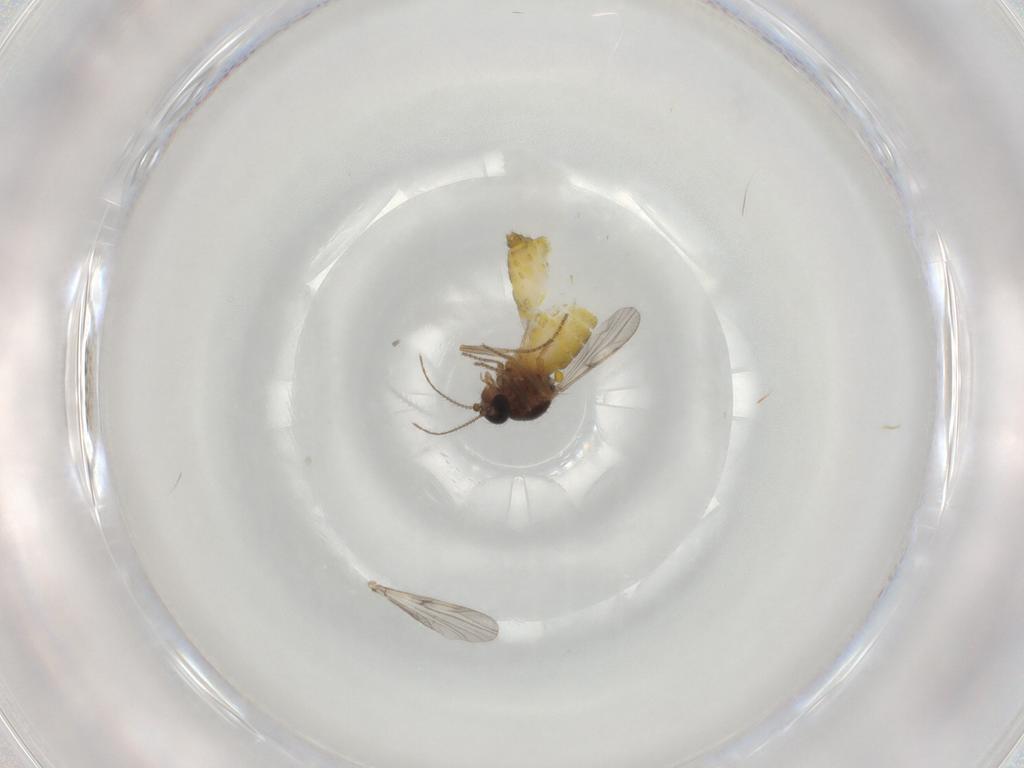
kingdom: Animalia
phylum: Arthropoda
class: Insecta
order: Diptera
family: Ceratopogonidae
